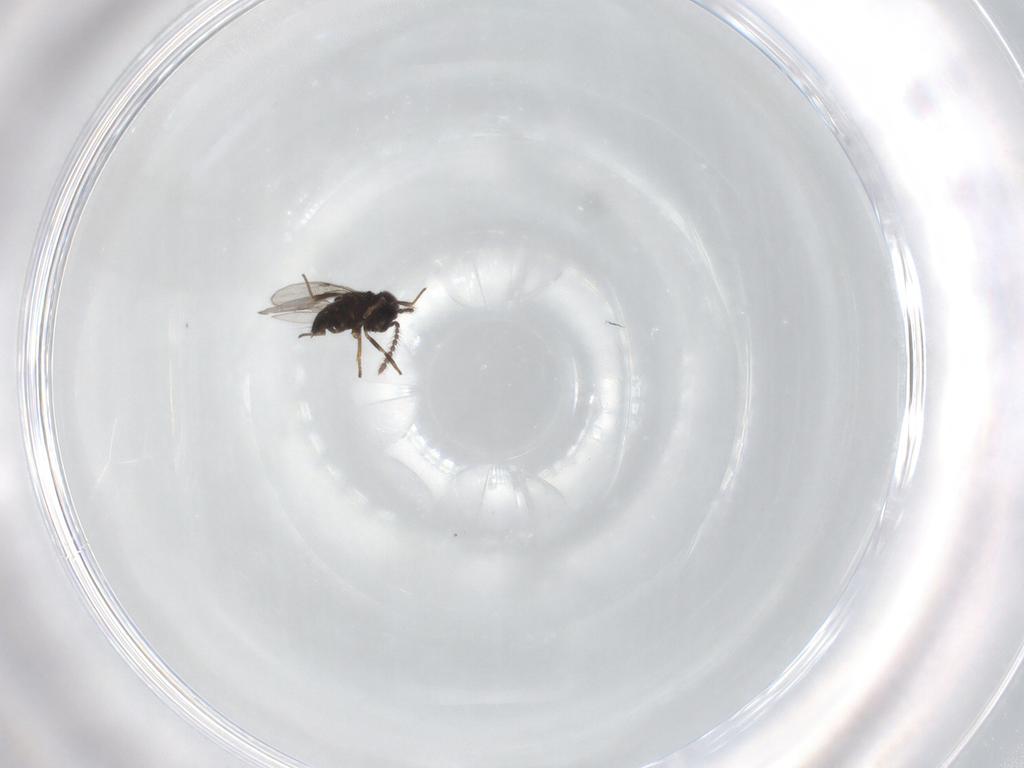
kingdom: Animalia
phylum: Arthropoda
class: Insecta
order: Hymenoptera
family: Encyrtidae
